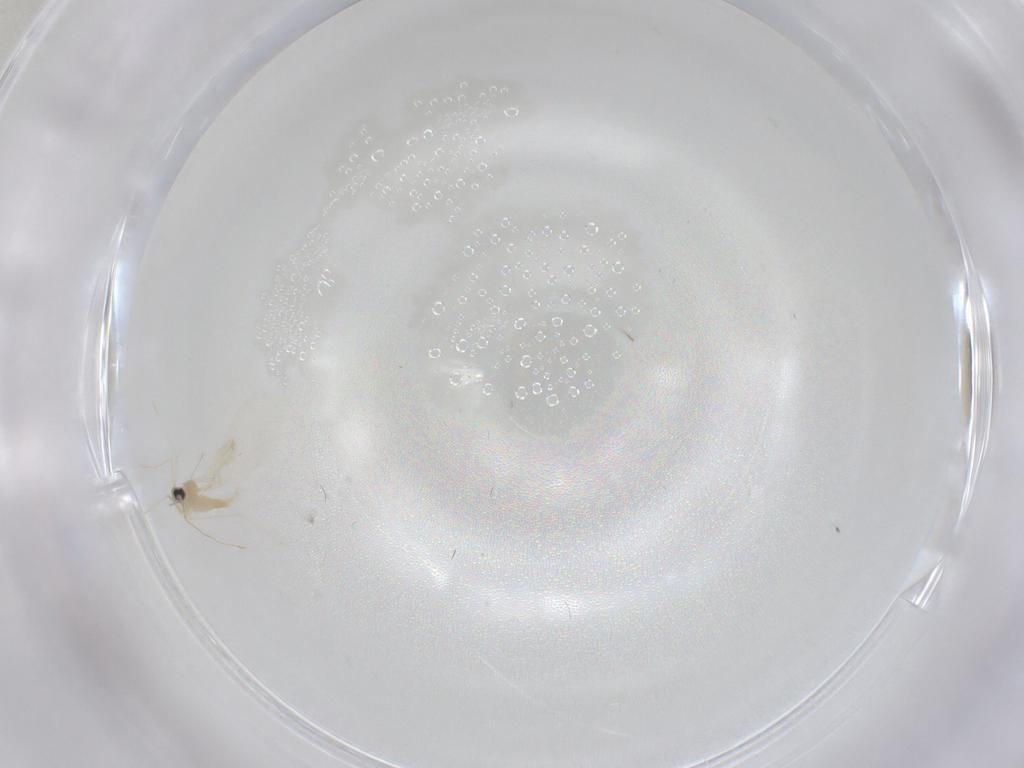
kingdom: Animalia
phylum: Arthropoda
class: Insecta
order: Diptera
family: Cecidomyiidae
